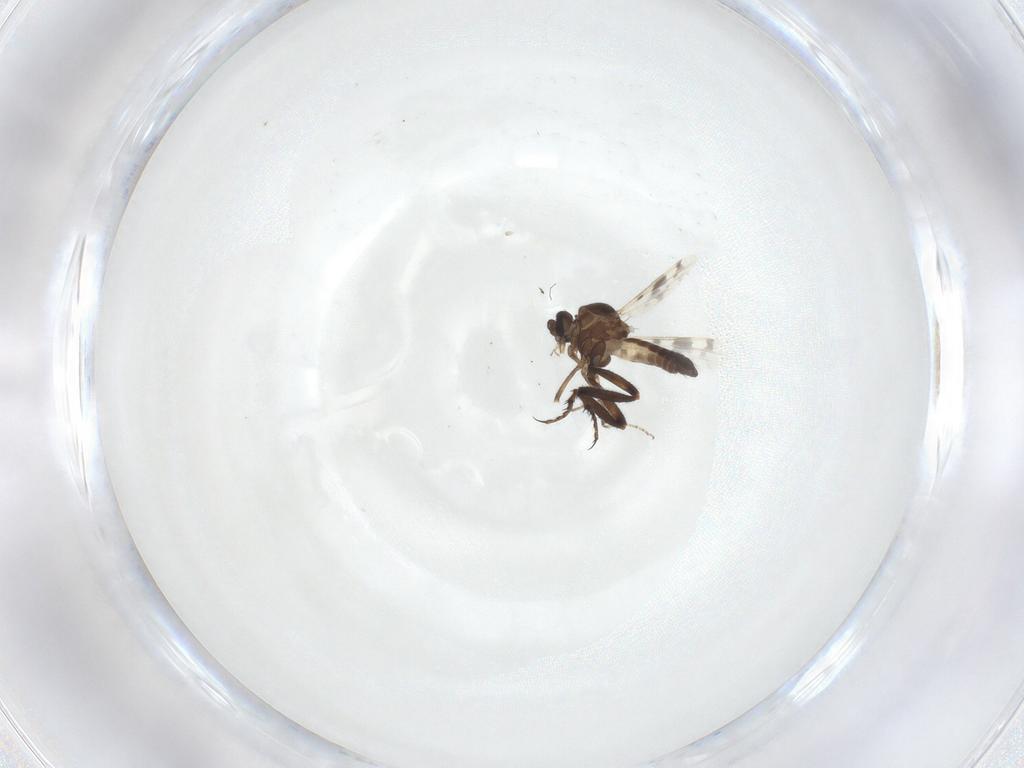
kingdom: Animalia
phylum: Arthropoda
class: Insecta
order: Diptera
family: Ceratopogonidae
